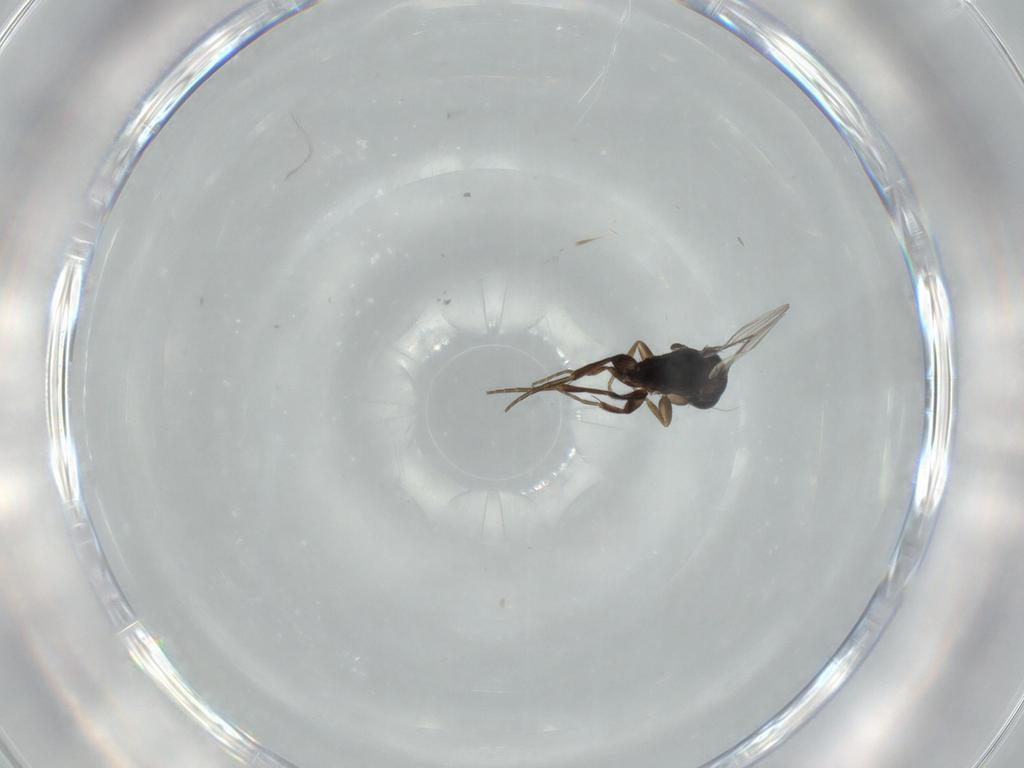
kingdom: Animalia
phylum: Arthropoda
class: Insecta
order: Diptera
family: Phoridae
